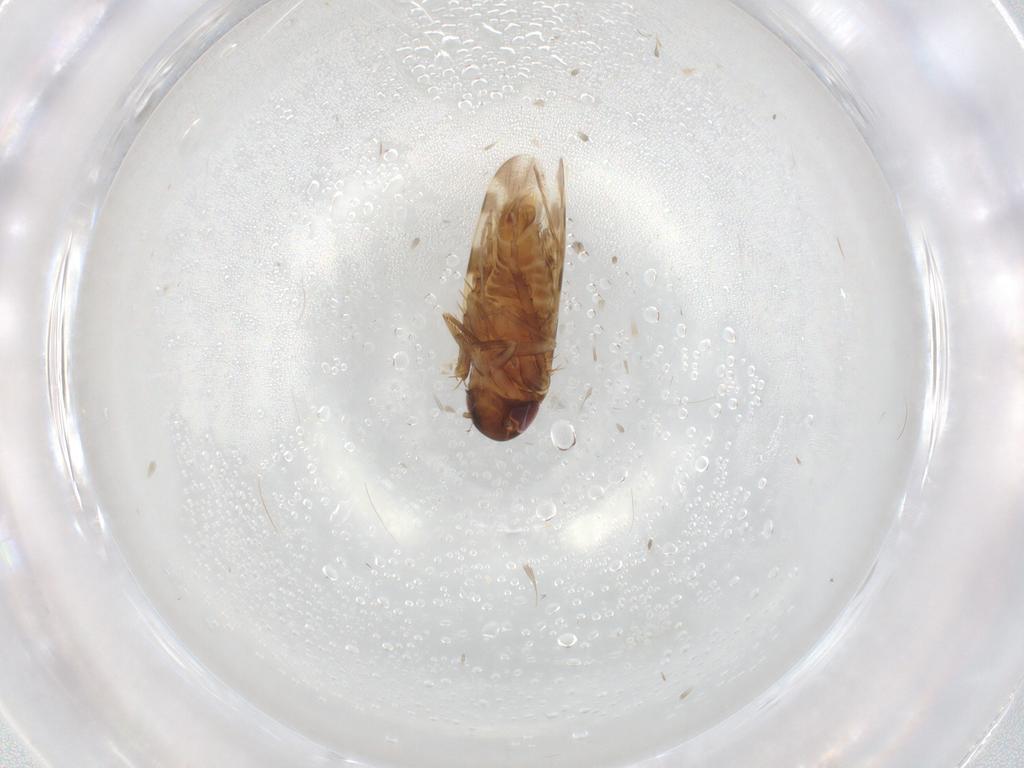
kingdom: Animalia
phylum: Arthropoda
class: Insecta
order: Hemiptera
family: Cicadellidae
